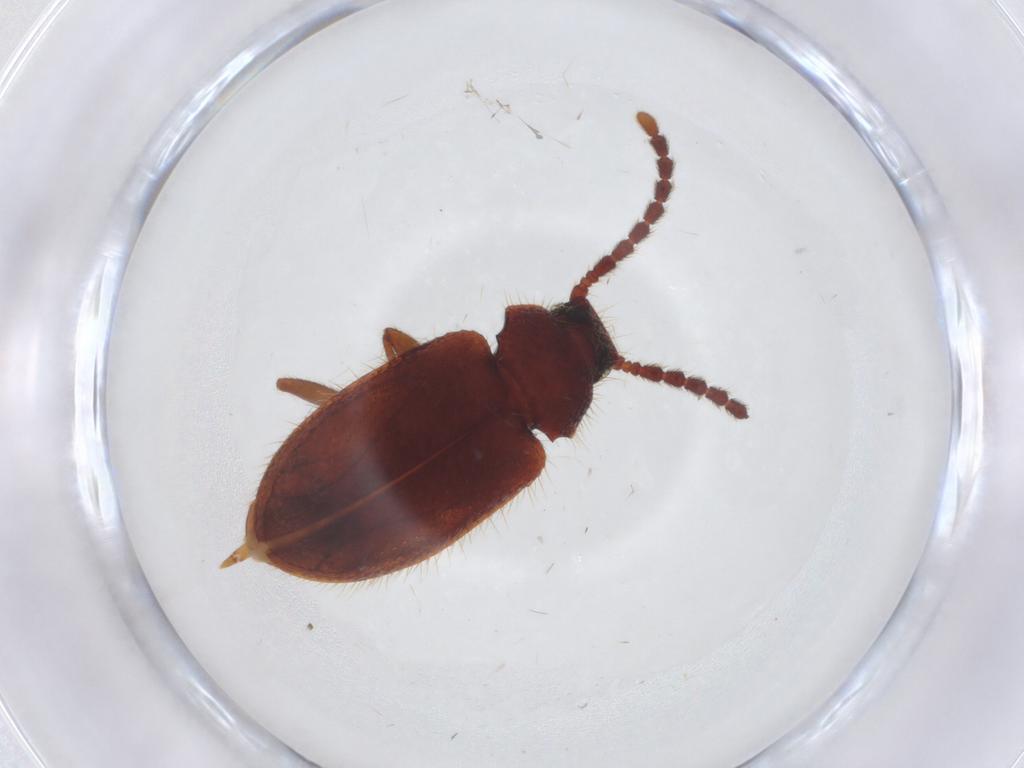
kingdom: Animalia
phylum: Arthropoda
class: Insecta
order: Coleoptera
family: Tenebrionidae
